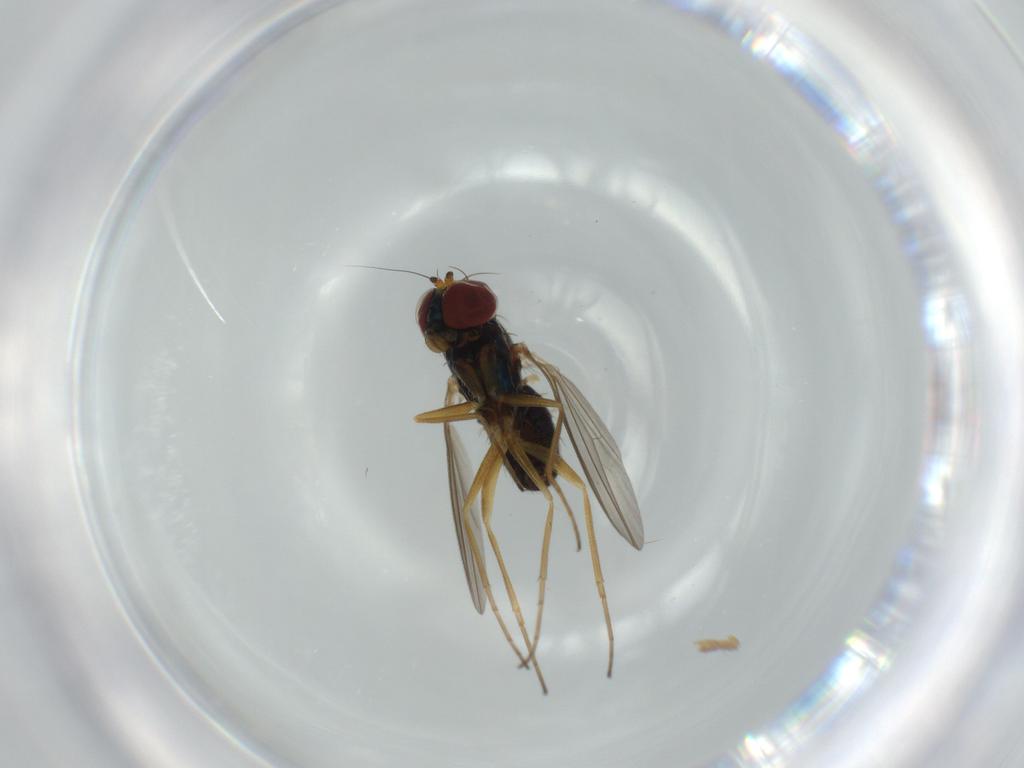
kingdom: Animalia
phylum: Arthropoda
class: Insecta
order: Diptera
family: Dolichopodidae
